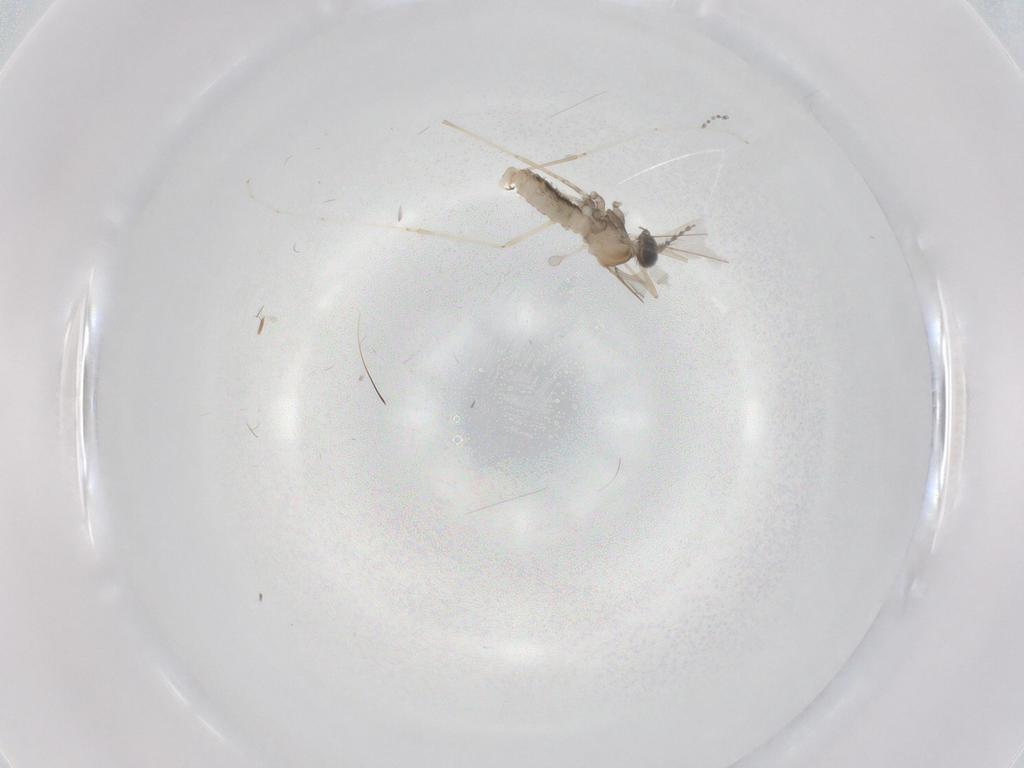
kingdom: Animalia
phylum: Arthropoda
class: Insecta
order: Diptera
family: Cecidomyiidae
